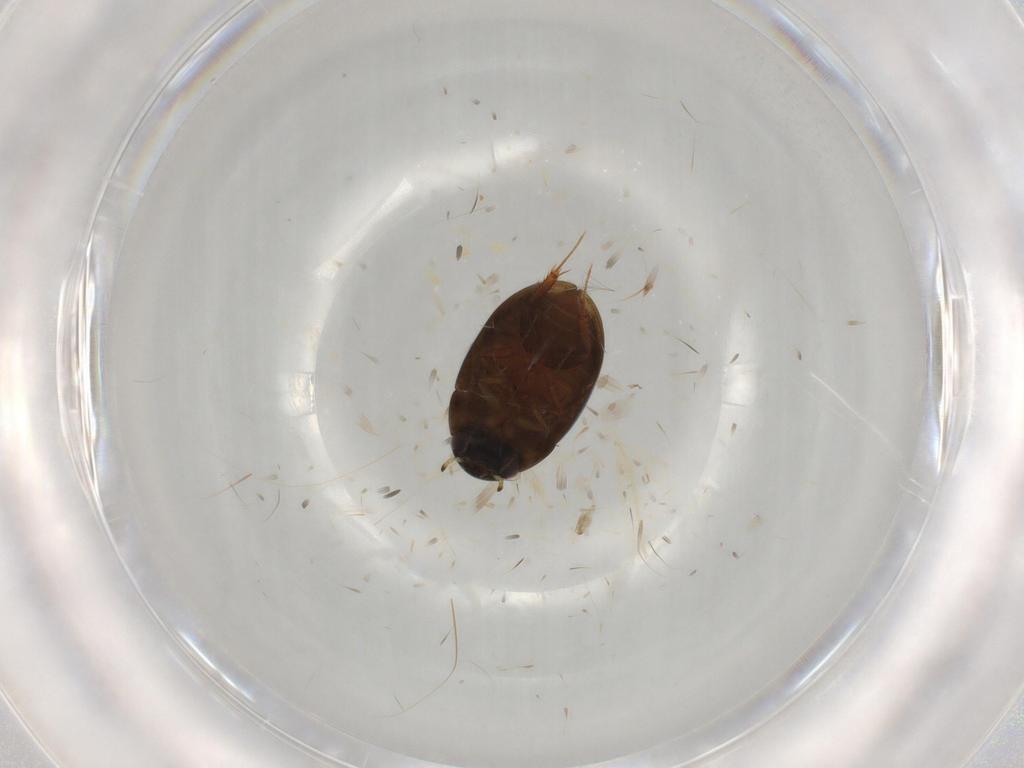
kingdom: Animalia
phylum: Arthropoda
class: Insecta
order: Coleoptera
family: Hydrophilidae
